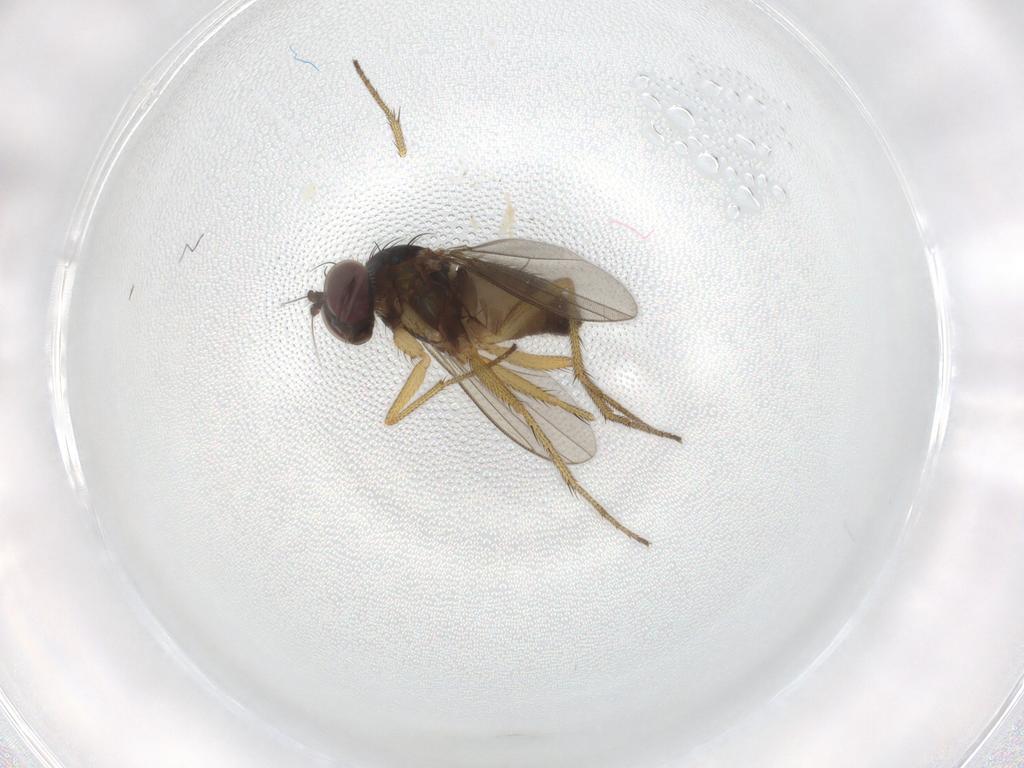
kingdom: Animalia
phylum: Arthropoda
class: Insecta
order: Diptera
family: Dolichopodidae
